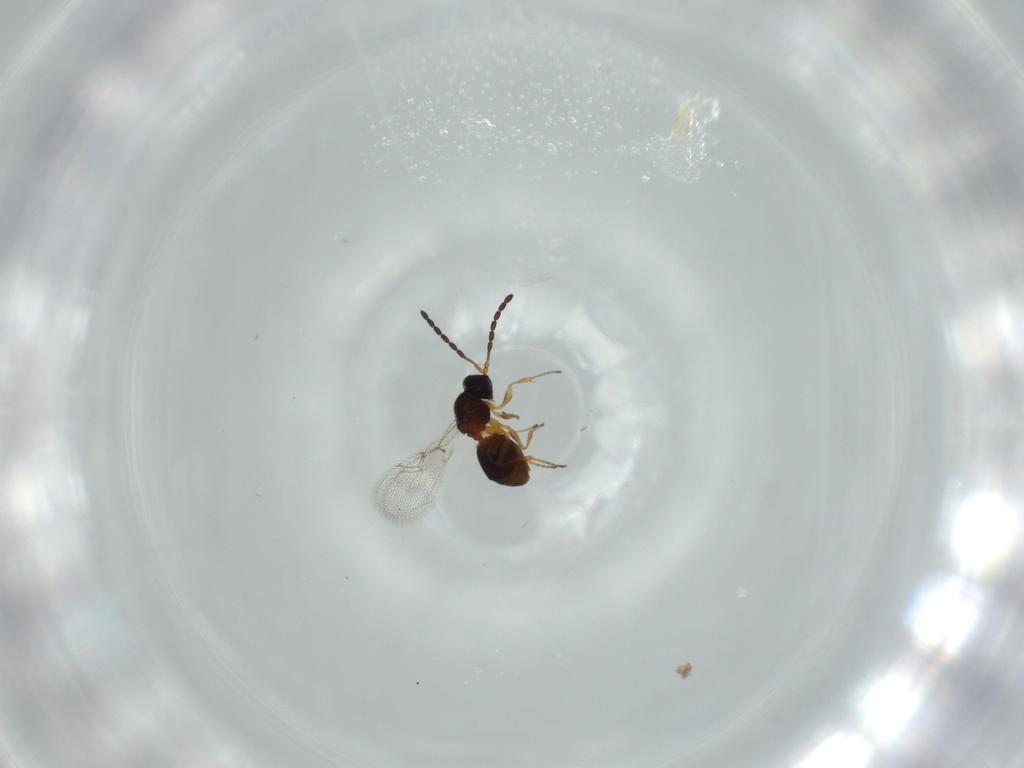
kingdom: Animalia
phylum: Arthropoda
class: Insecta
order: Hymenoptera
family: Figitidae
